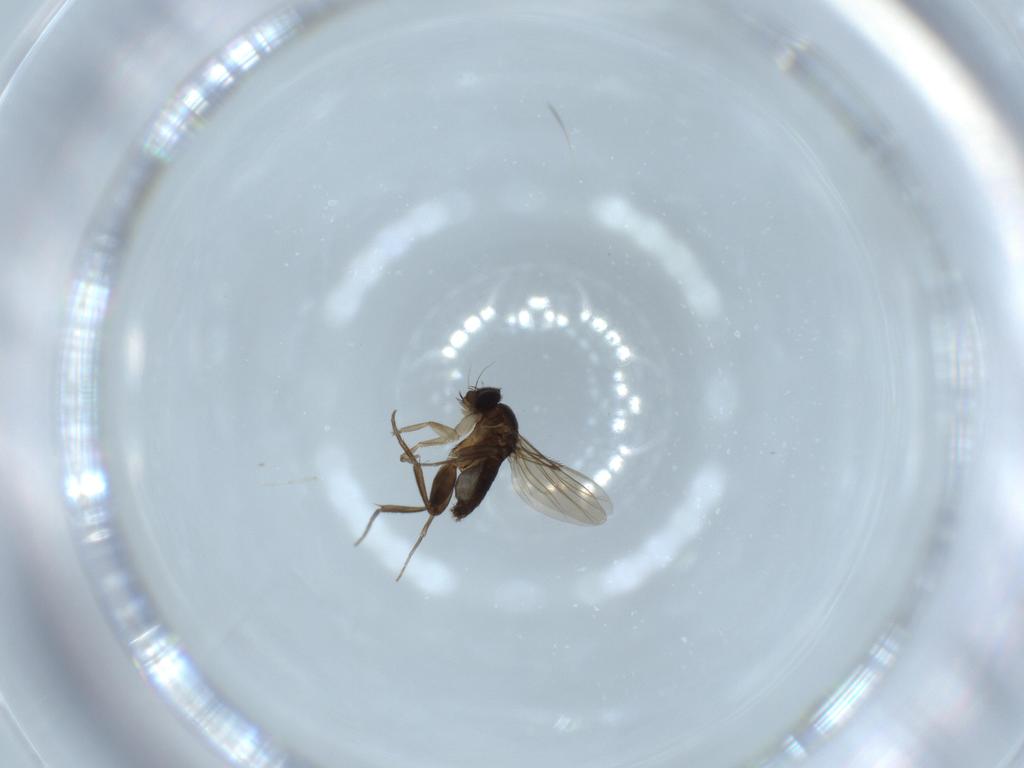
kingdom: Animalia
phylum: Arthropoda
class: Insecta
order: Diptera
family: Phoridae
